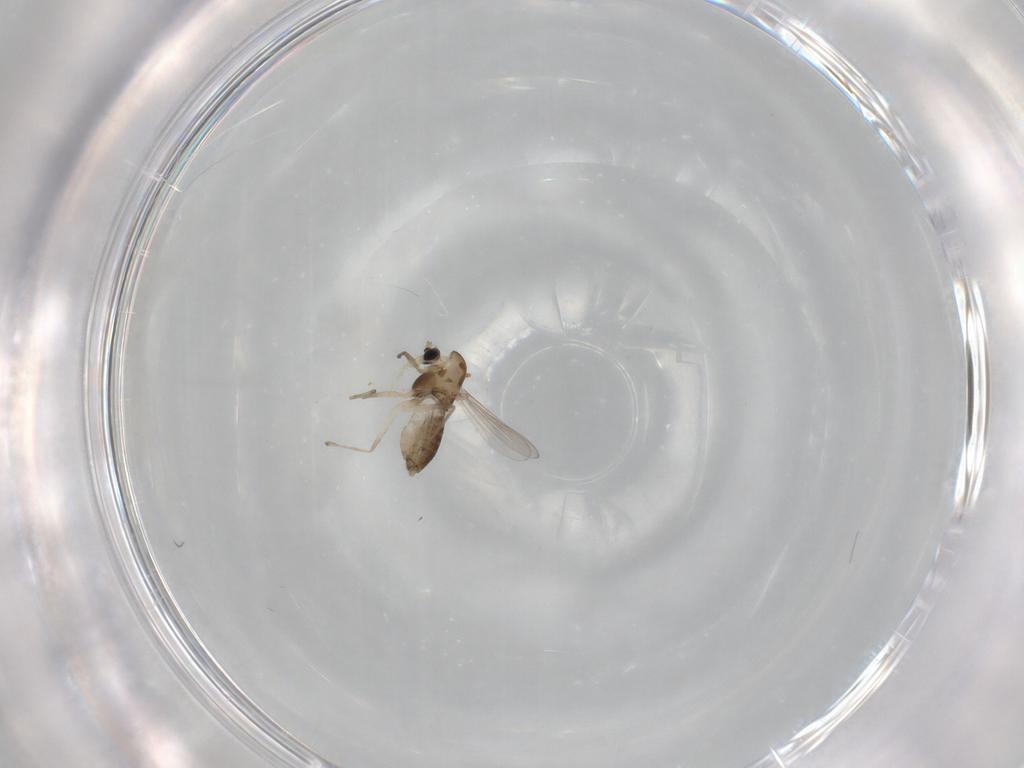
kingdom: Animalia
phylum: Arthropoda
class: Insecta
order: Diptera
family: Chironomidae
